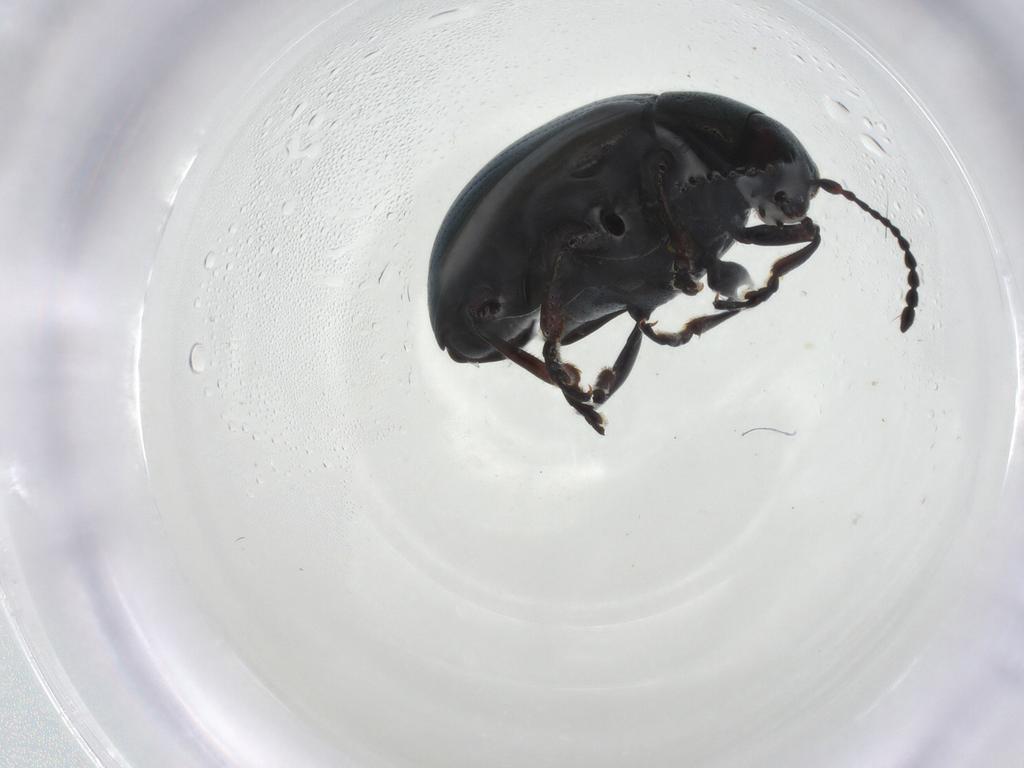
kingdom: Animalia
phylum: Arthropoda
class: Insecta
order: Coleoptera
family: Chrysomelidae
